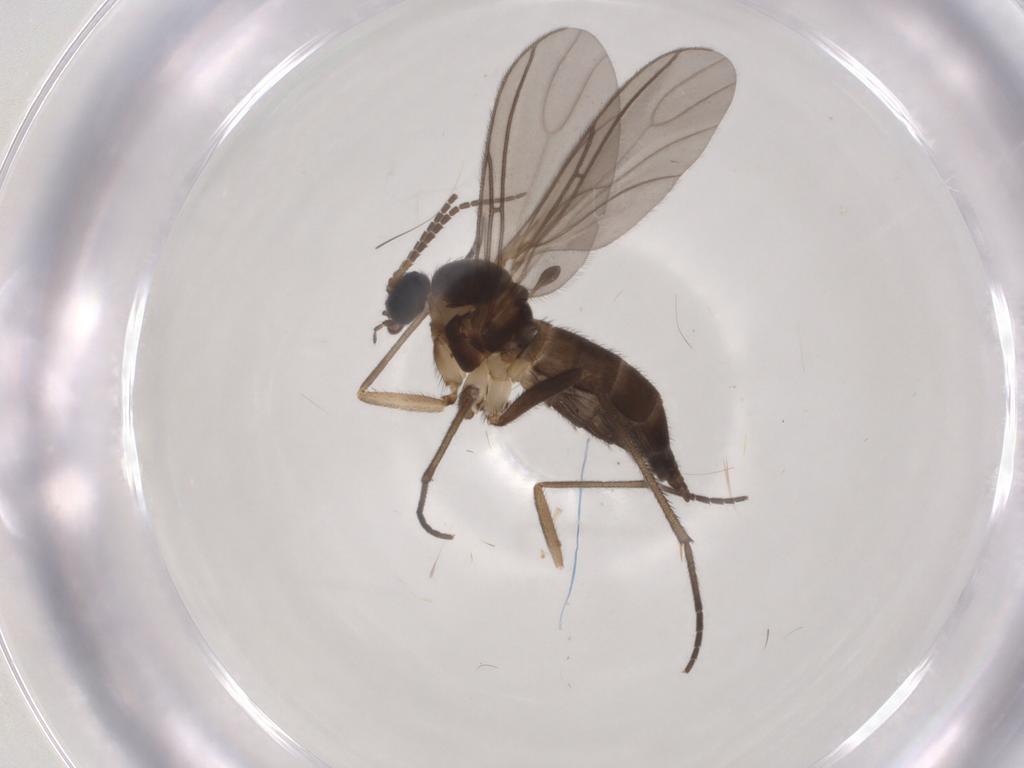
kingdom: Animalia
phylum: Arthropoda
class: Insecta
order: Diptera
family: Sciaridae
